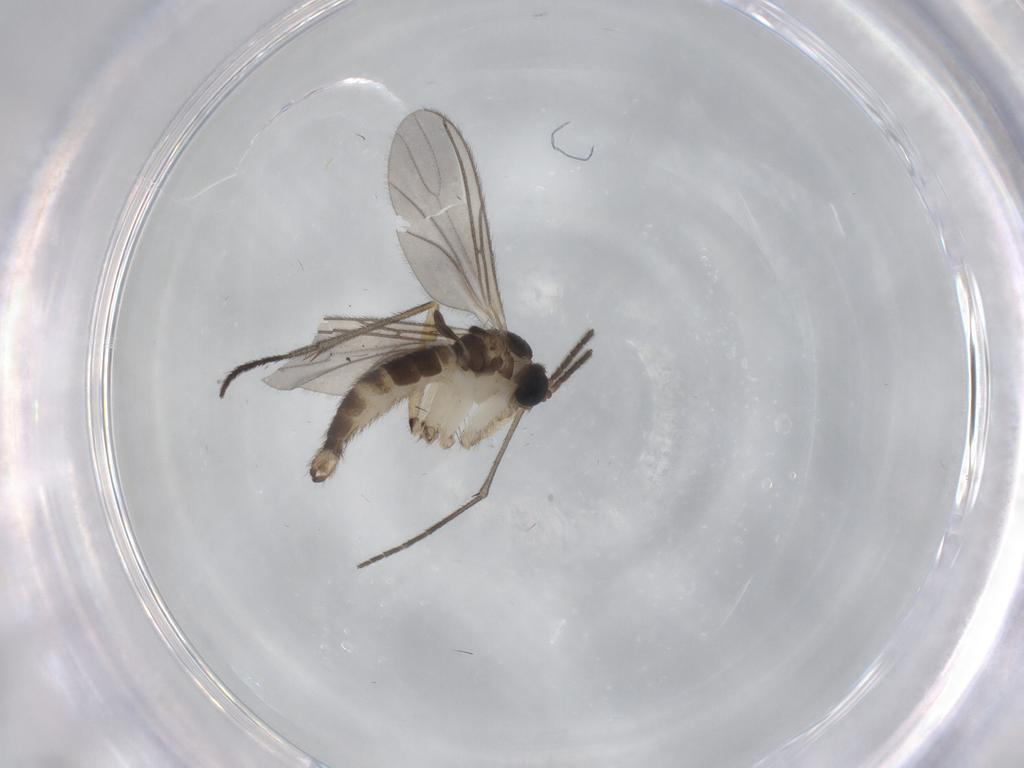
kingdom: Animalia
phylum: Arthropoda
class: Insecta
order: Diptera
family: Sciaridae
